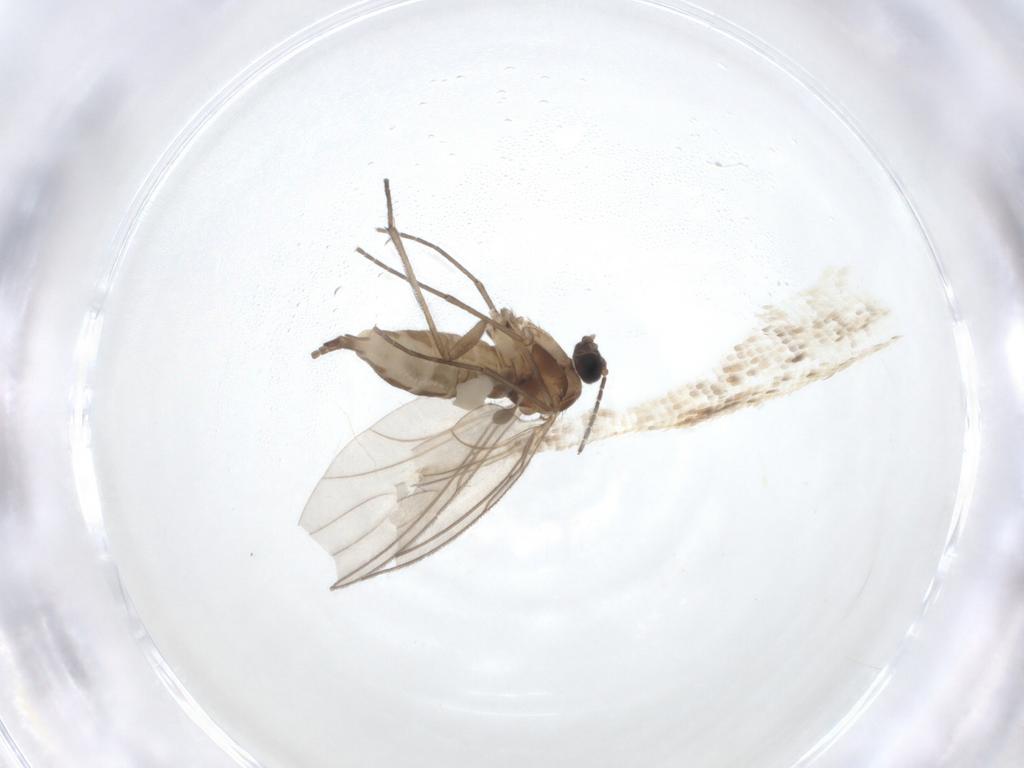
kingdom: Animalia
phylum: Arthropoda
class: Insecta
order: Diptera
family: Sciaridae
